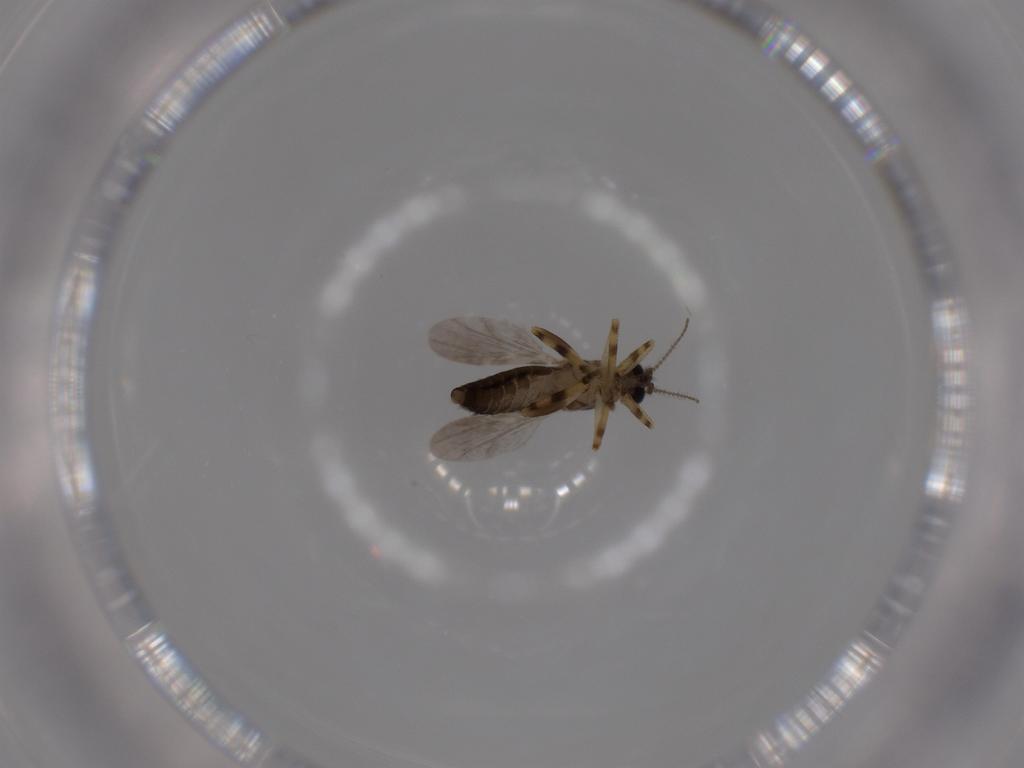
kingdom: Animalia
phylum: Arthropoda
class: Insecta
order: Diptera
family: Ceratopogonidae
